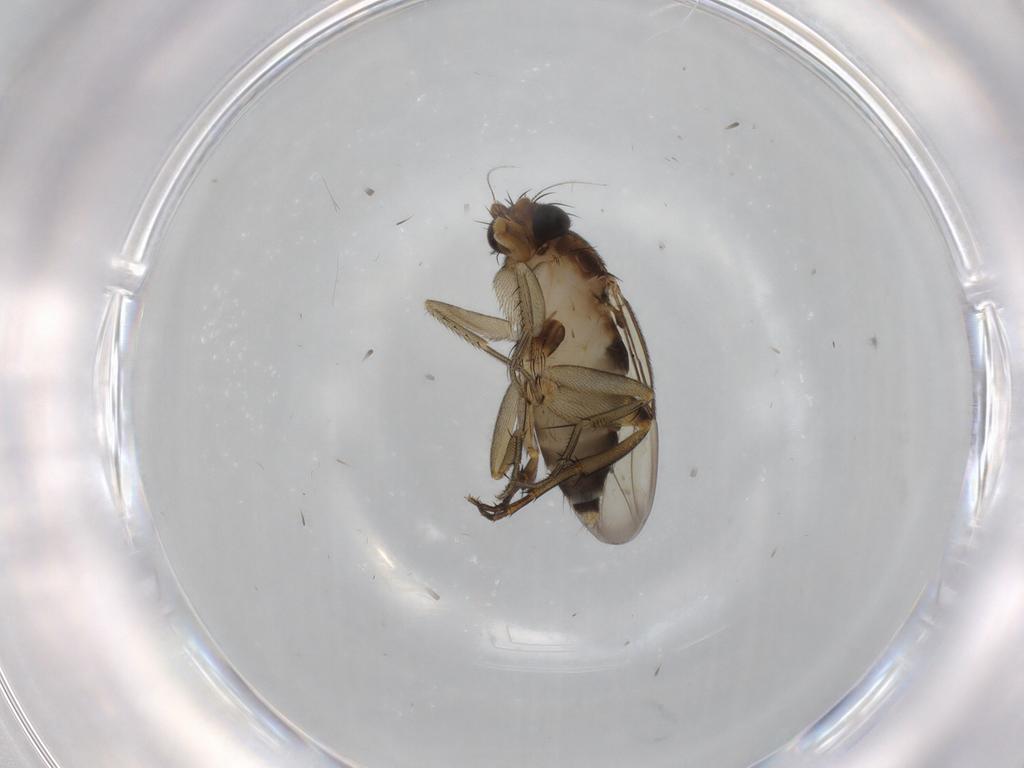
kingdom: Animalia
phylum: Arthropoda
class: Insecta
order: Diptera
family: Phoridae
